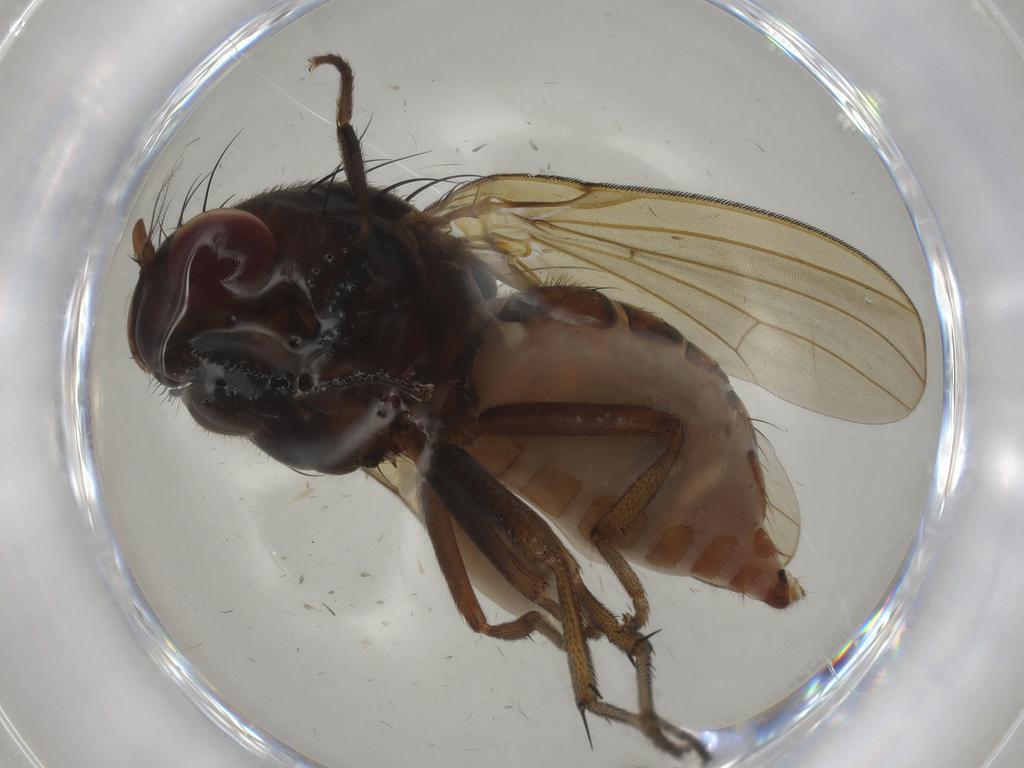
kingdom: Animalia
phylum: Arthropoda
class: Insecta
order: Diptera
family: Lauxaniidae
